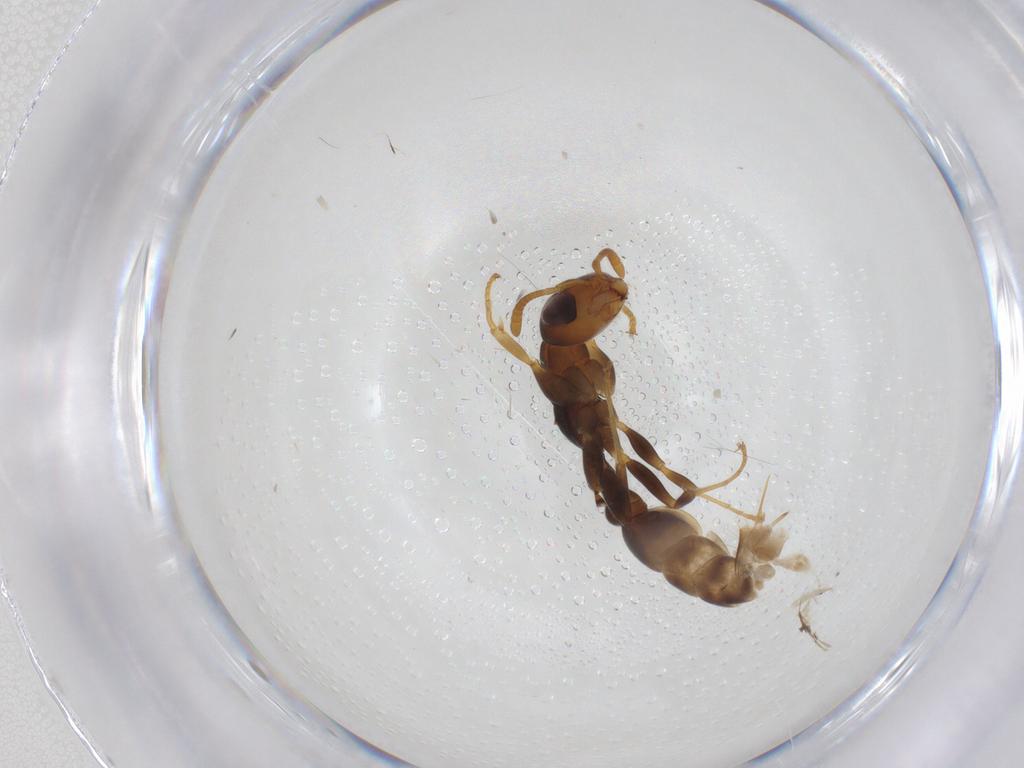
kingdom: Animalia
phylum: Arthropoda
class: Insecta
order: Hymenoptera
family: Formicidae
